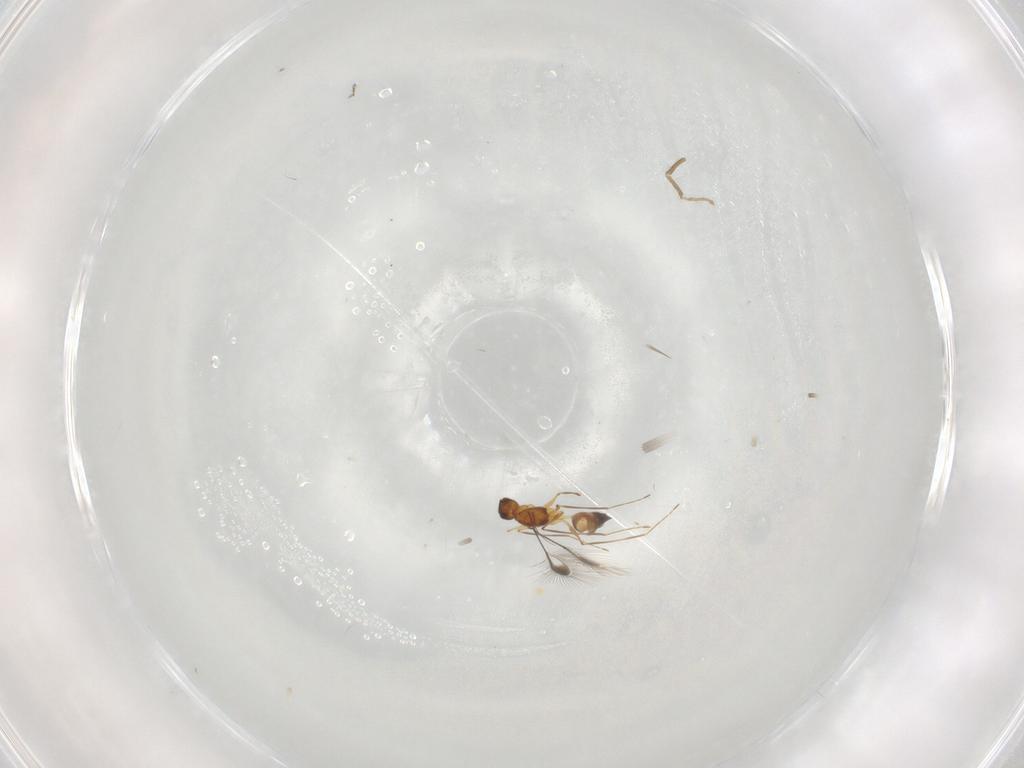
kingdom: Animalia
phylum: Arthropoda
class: Insecta
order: Hymenoptera
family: Mymaridae
